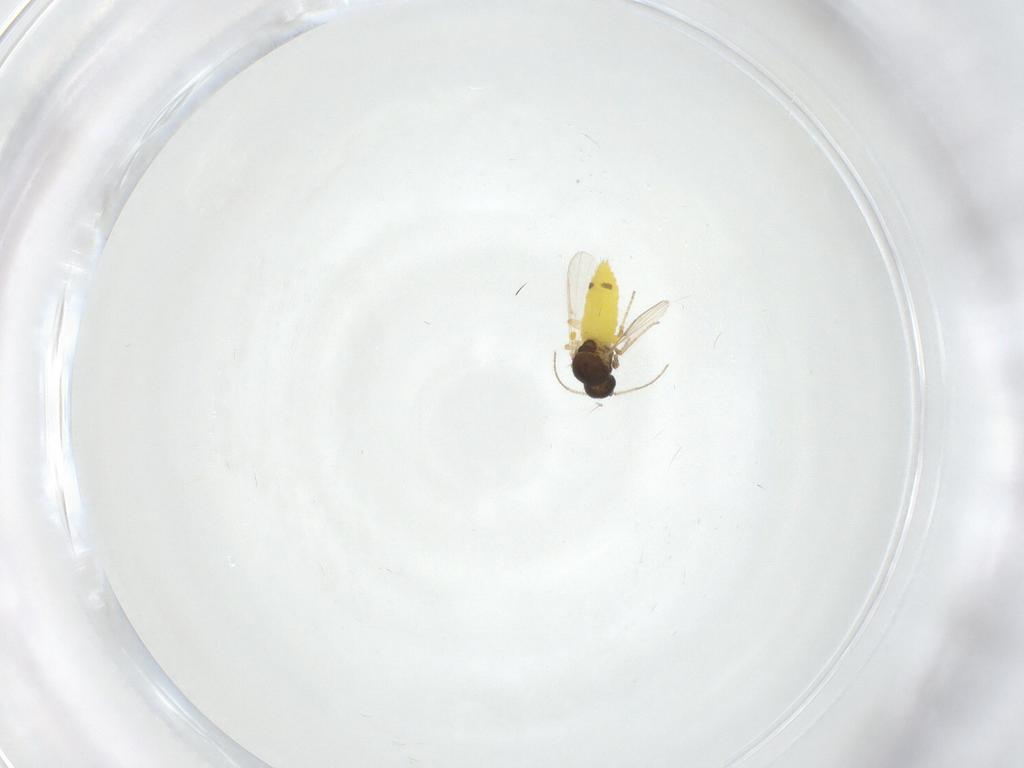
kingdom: Animalia
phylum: Arthropoda
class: Insecta
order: Diptera
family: Ceratopogonidae
